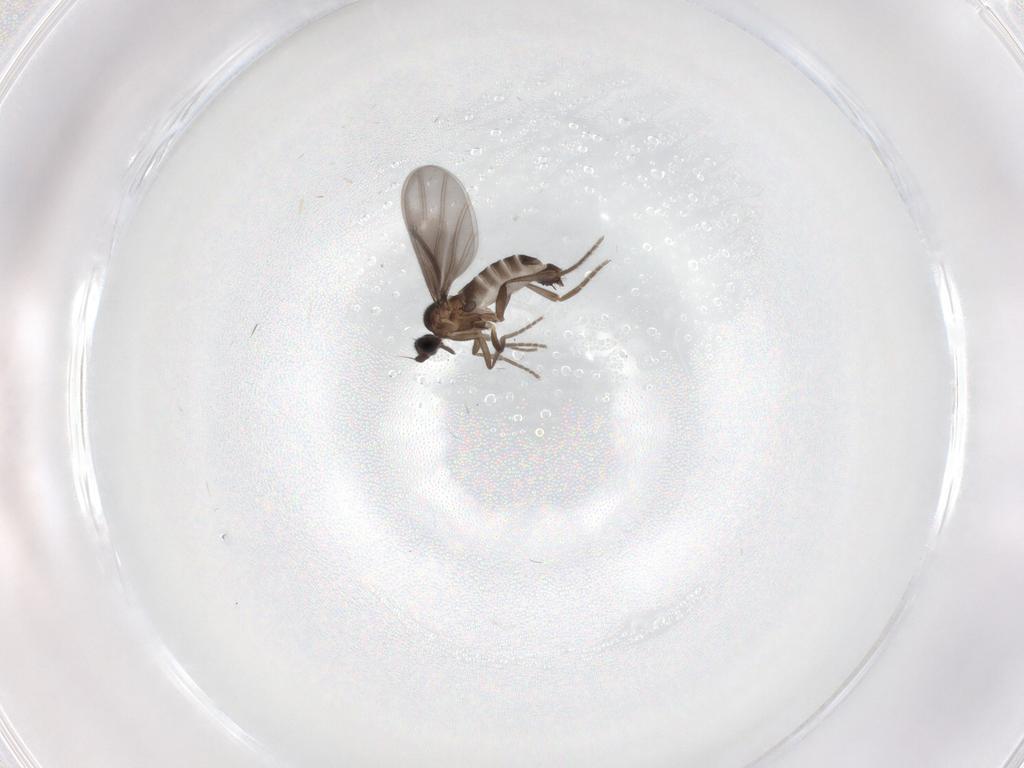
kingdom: Animalia
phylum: Arthropoda
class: Insecta
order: Diptera
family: Phoridae
